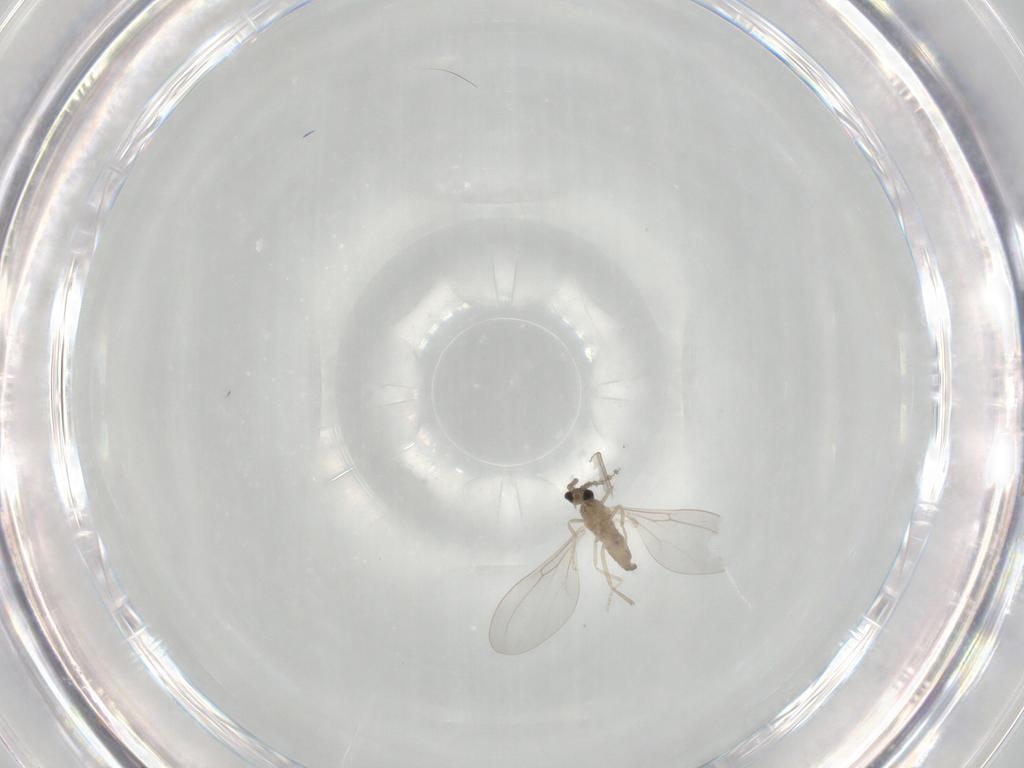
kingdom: Animalia
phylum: Arthropoda
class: Insecta
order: Diptera
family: Cecidomyiidae
